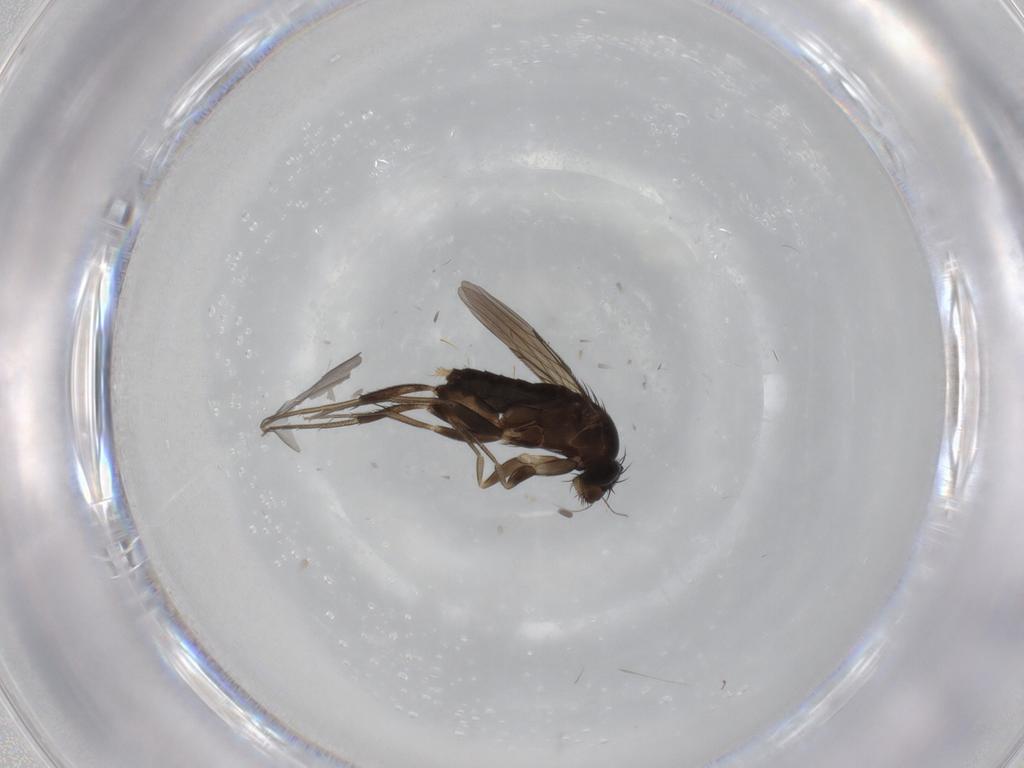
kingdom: Animalia
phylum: Arthropoda
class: Insecta
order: Diptera
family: Phoridae
